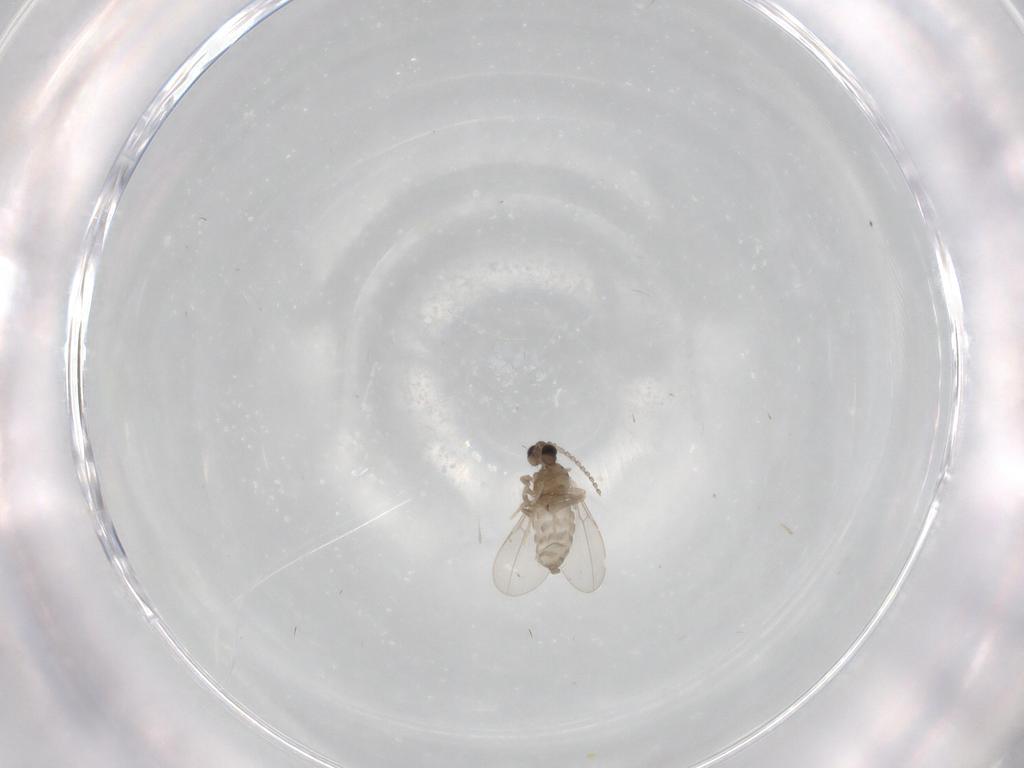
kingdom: Animalia
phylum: Arthropoda
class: Insecta
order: Diptera
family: Cecidomyiidae
